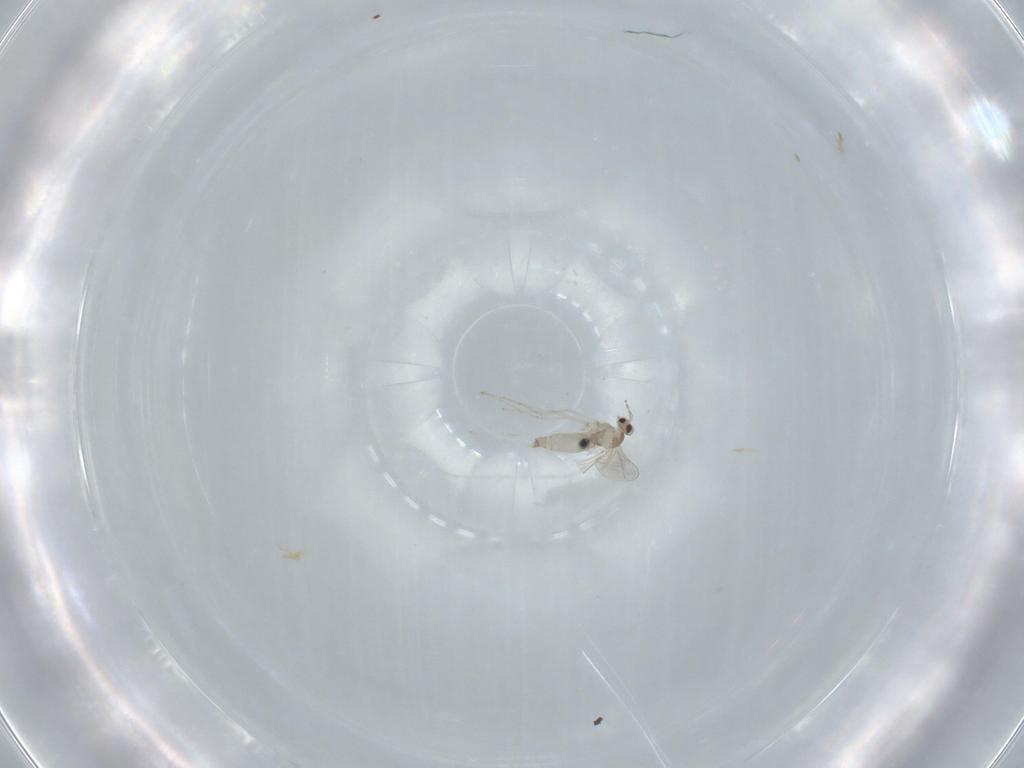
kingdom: Animalia
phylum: Arthropoda
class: Insecta
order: Diptera
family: Cecidomyiidae
